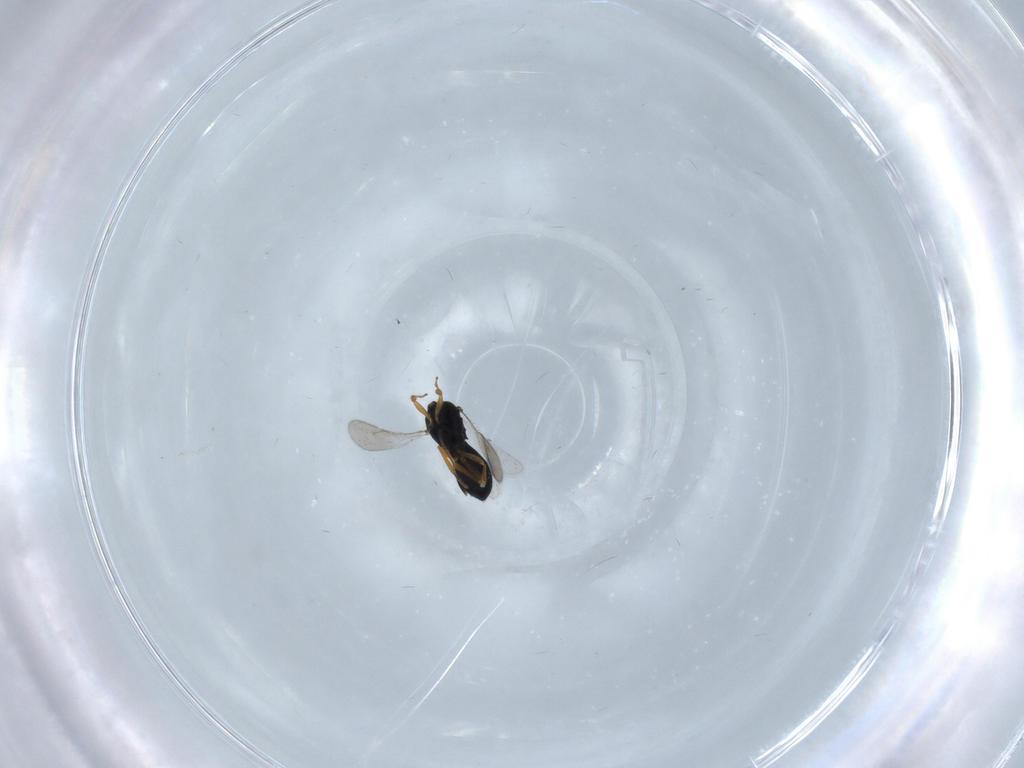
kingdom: Animalia
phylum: Arthropoda
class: Insecta
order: Hymenoptera
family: Scelionidae
